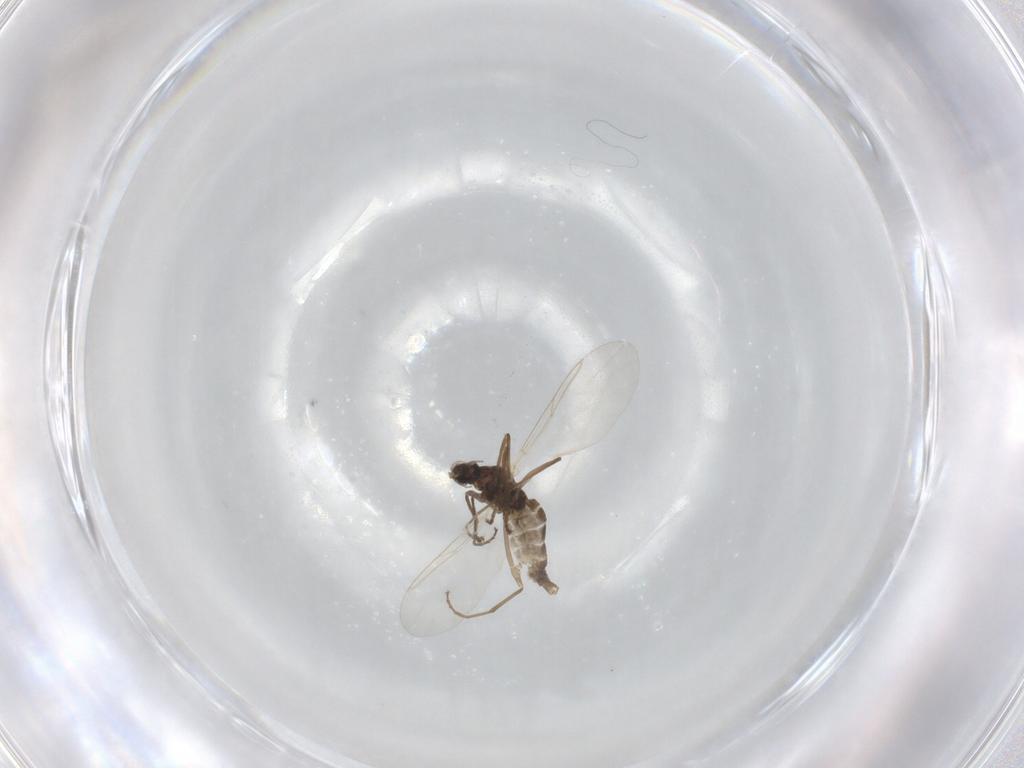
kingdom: Animalia
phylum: Arthropoda
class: Insecta
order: Diptera
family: Cecidomyiidae
